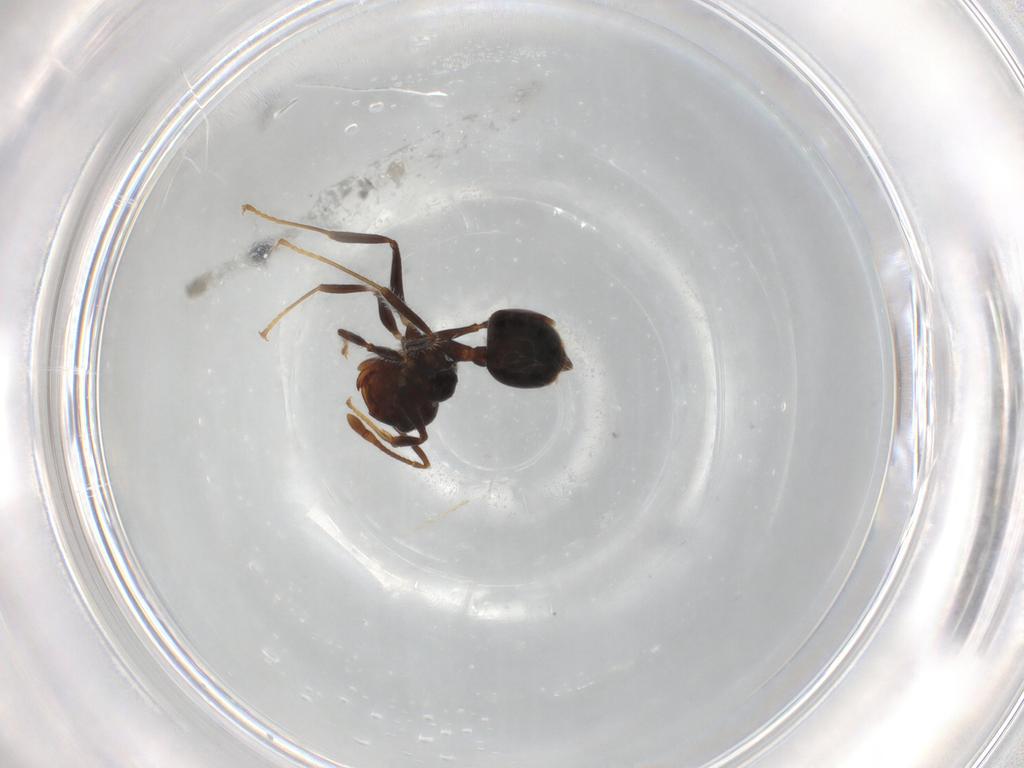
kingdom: Animalia
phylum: Arthropoda
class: Insecta
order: Hymenoptera
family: Formicidae
